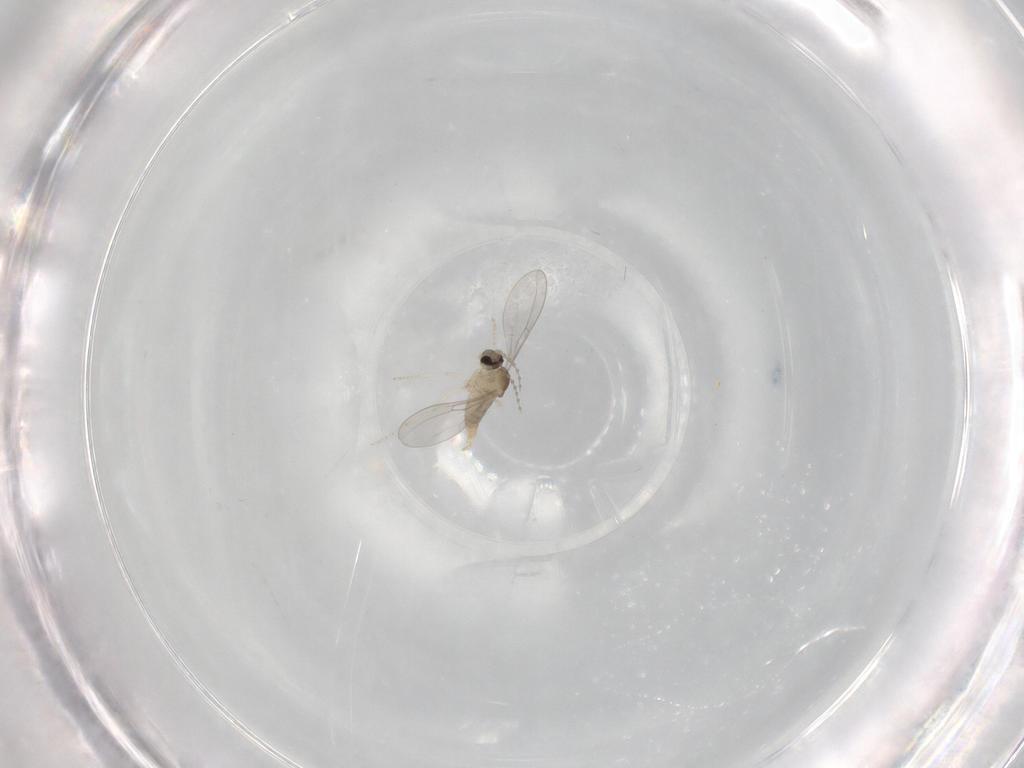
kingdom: Animalia
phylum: Arthropoda
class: Insecta
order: Diptera
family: Cecidomyiidae
